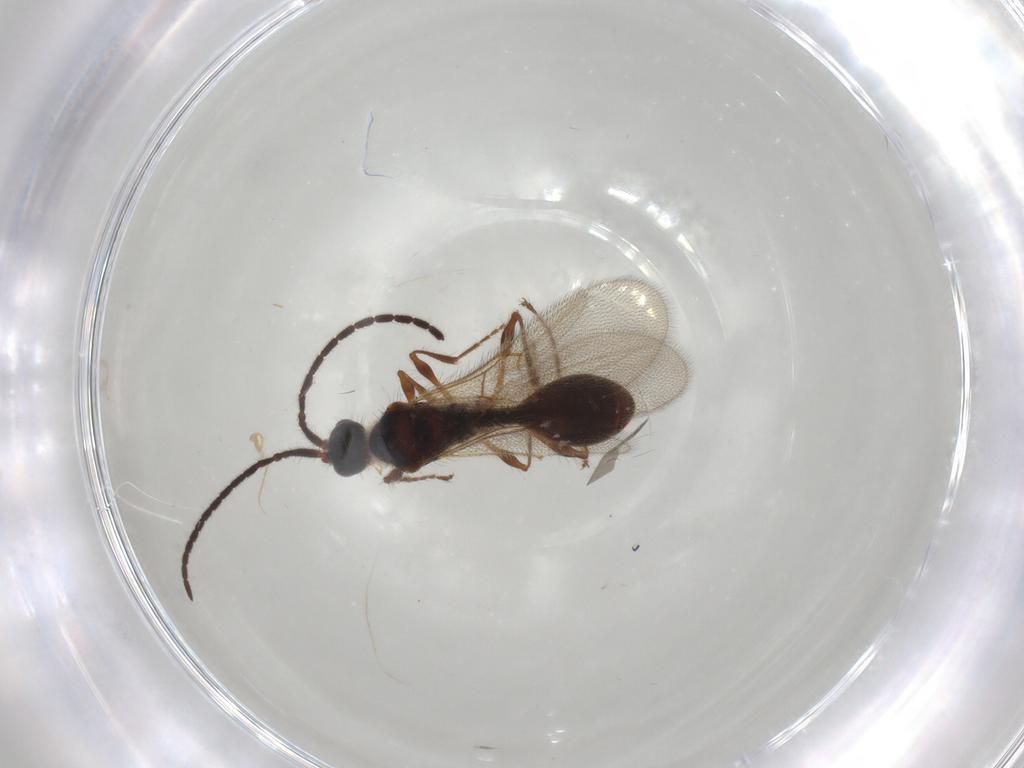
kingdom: Animalia
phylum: Arthropoda
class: Insecta
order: Hymenoptera
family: Diapriidae
